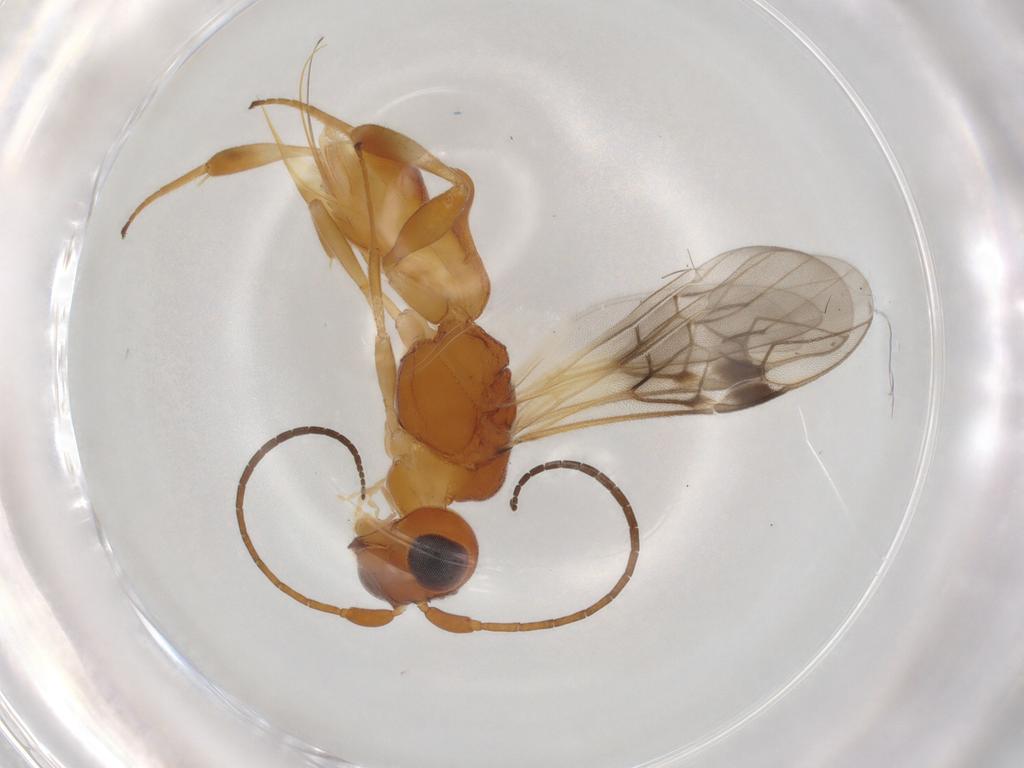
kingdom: Animalia
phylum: Arthropoda
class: Insecta
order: Hymenoptera
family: Braconidae
